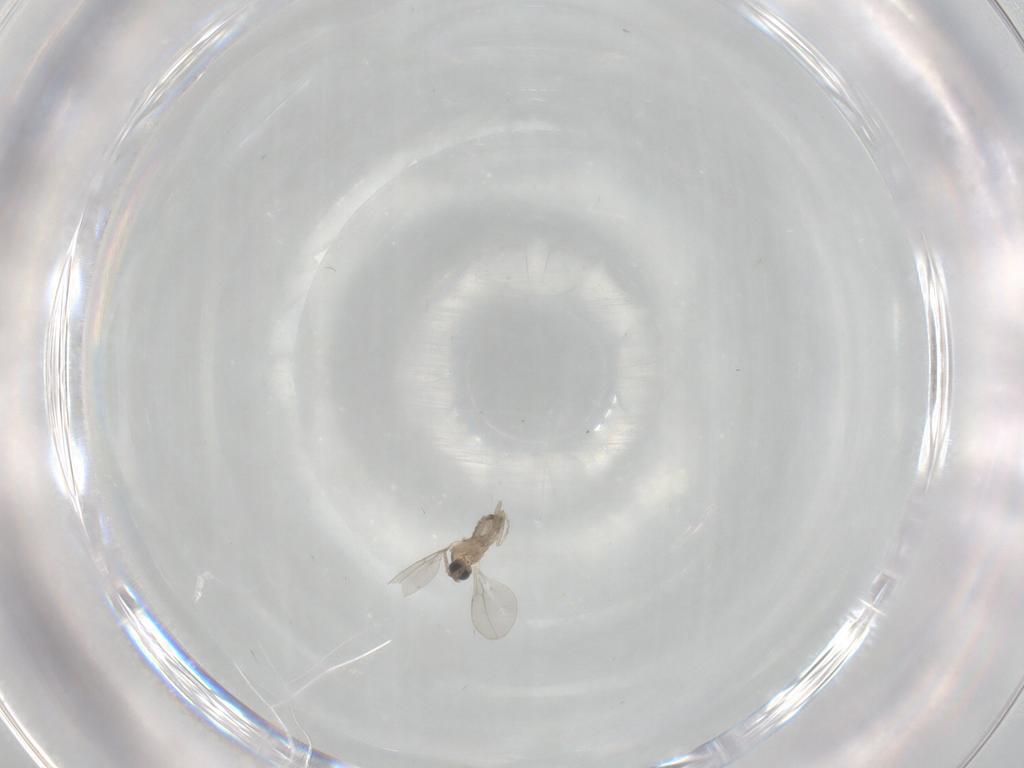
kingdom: Animalia
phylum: Arthropoda
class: Insecta
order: Diptera
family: Cecidomyiidae
